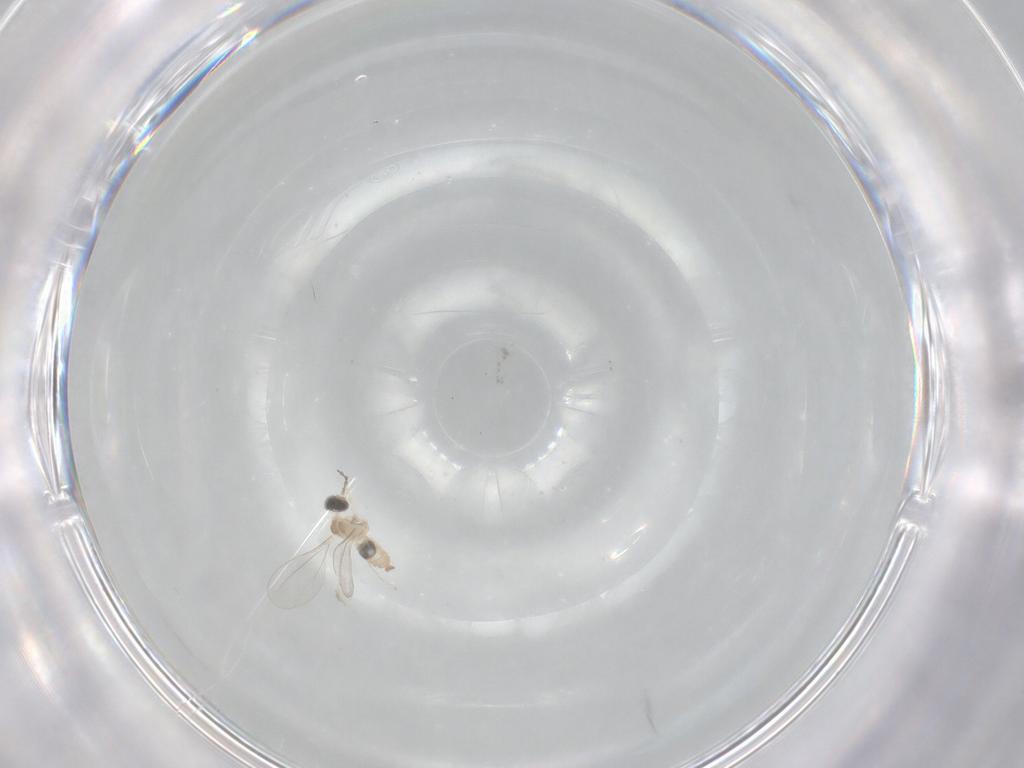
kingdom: Animalia
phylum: Arthropoda
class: Insecta
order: Diptera
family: Cecidomyiidae
